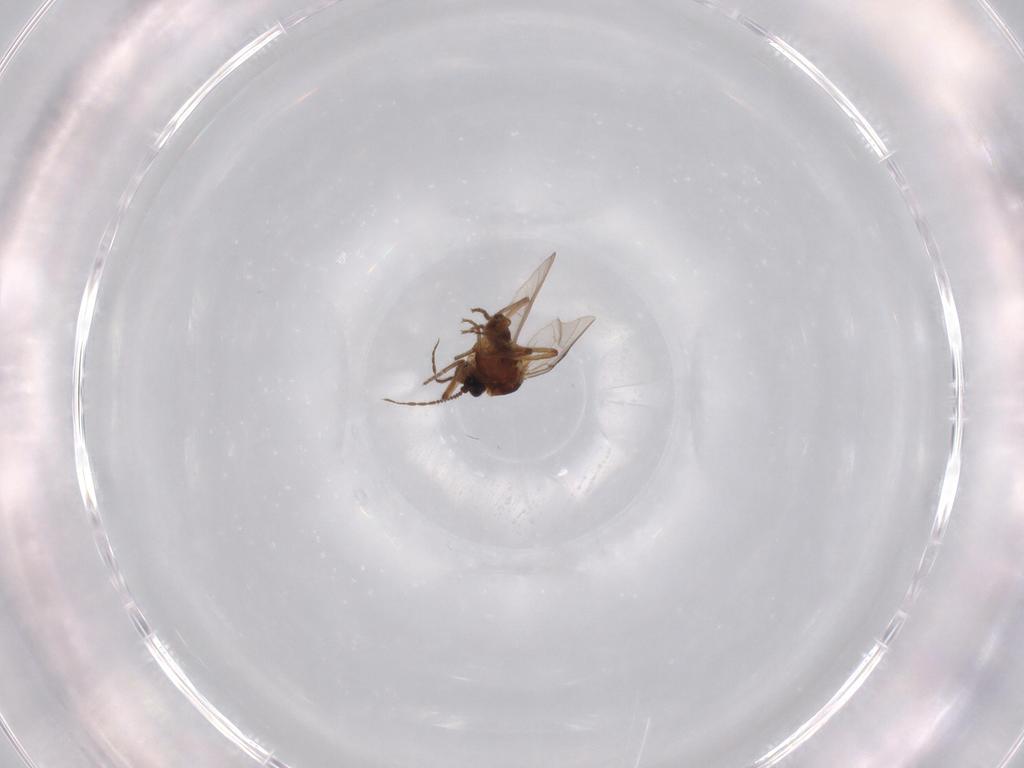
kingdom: Animalia
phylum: Arthropoda
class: Insecta
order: Diptera
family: Ceratopogonidae
